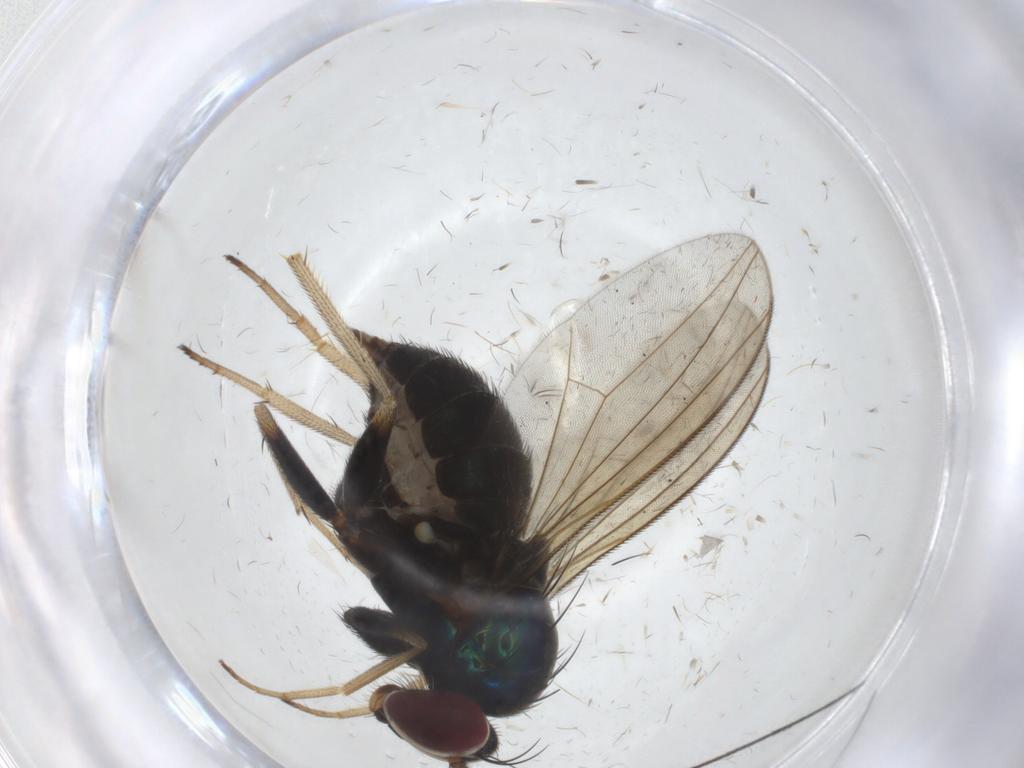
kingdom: Animalia
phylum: Arthropoda
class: Insecta
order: Diptera
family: Dolichopodidae
